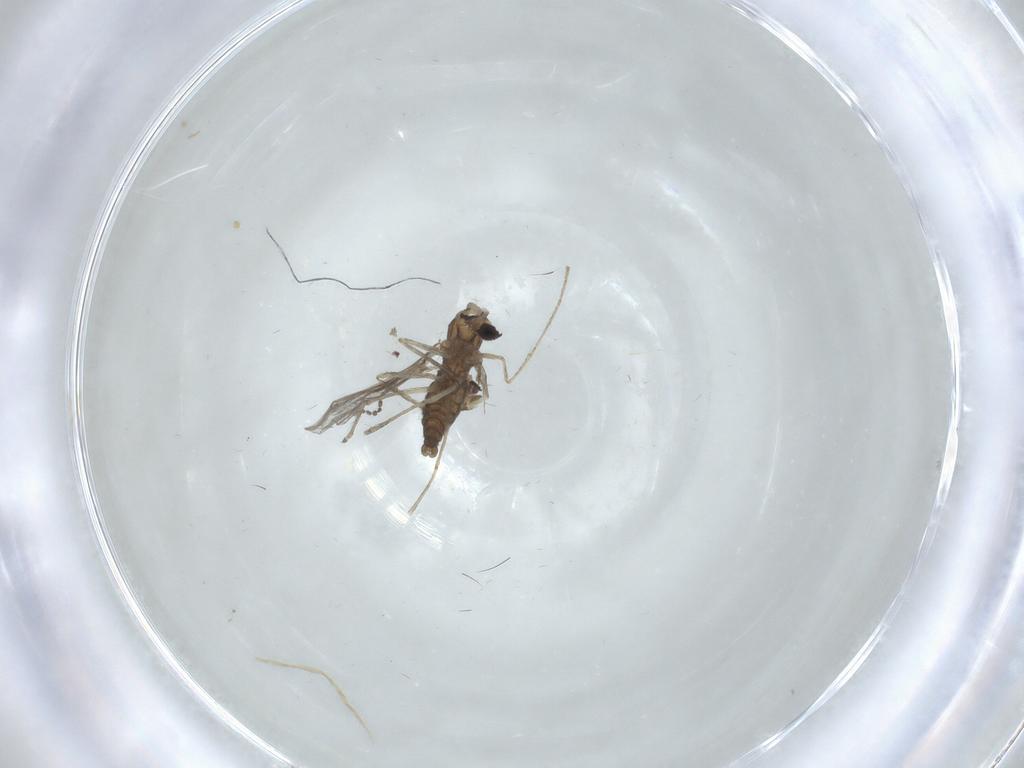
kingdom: Animalia
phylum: Arthropoda
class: Insecta
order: Diptera
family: Cecidomyiidae
